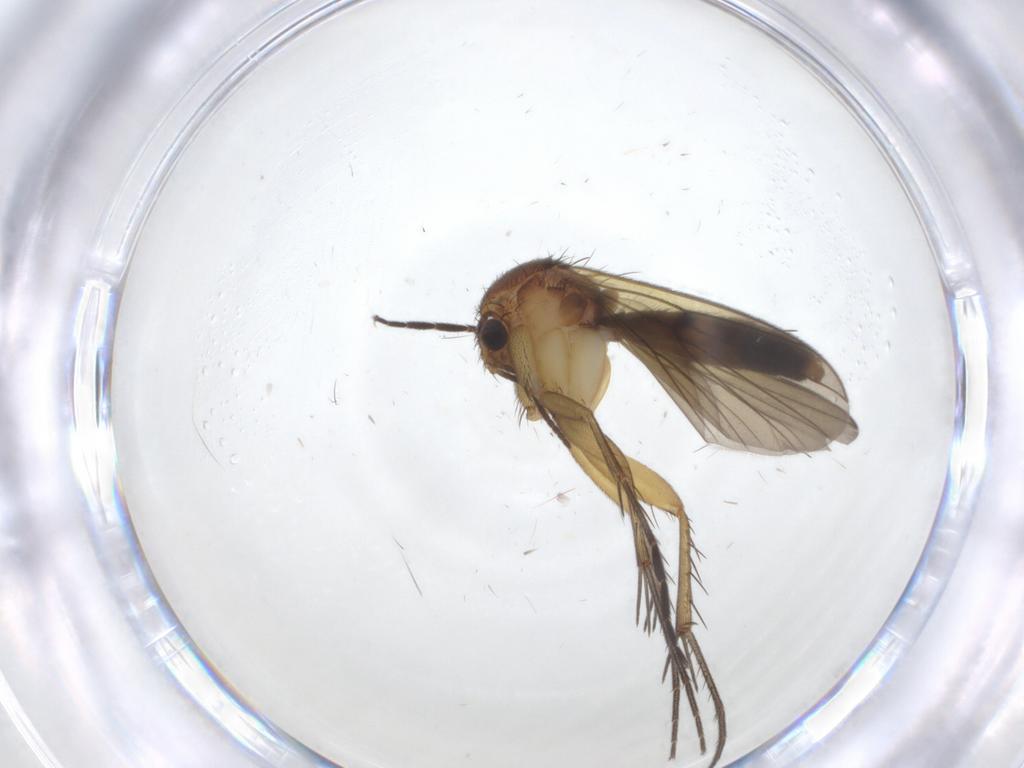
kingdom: Animalia
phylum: Arthropoda
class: Insecta
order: Diptera
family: Mycetophilidae
